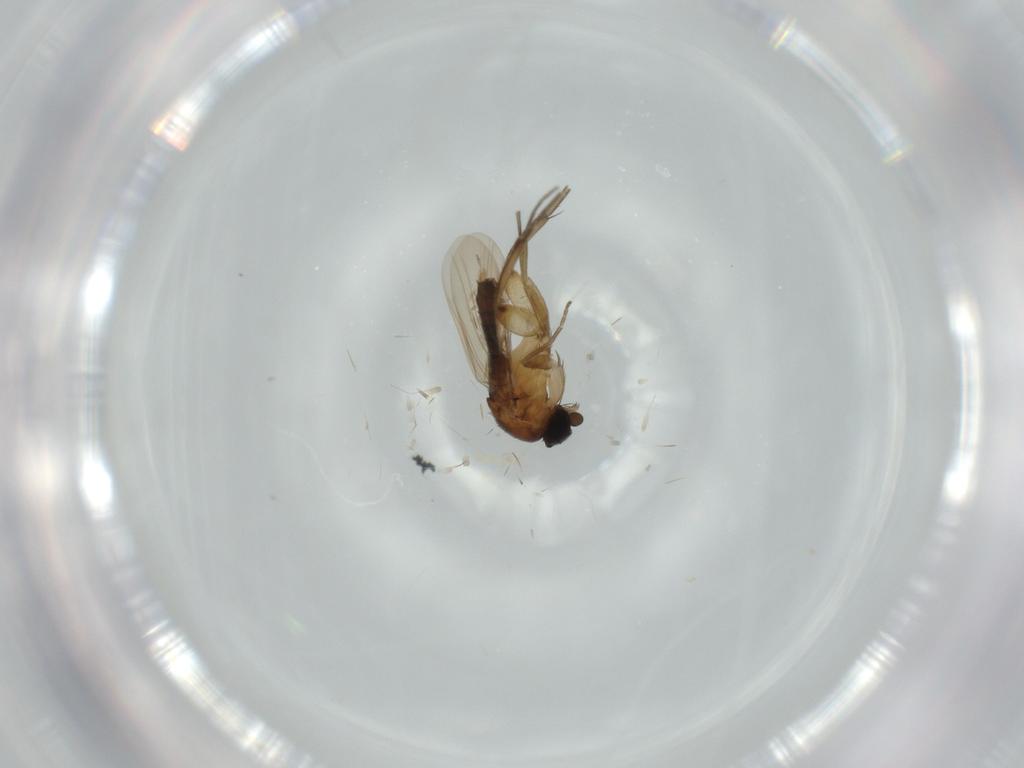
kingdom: Animalia
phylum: Arthropoda
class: Insecta
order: Diptera
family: Phoridae
